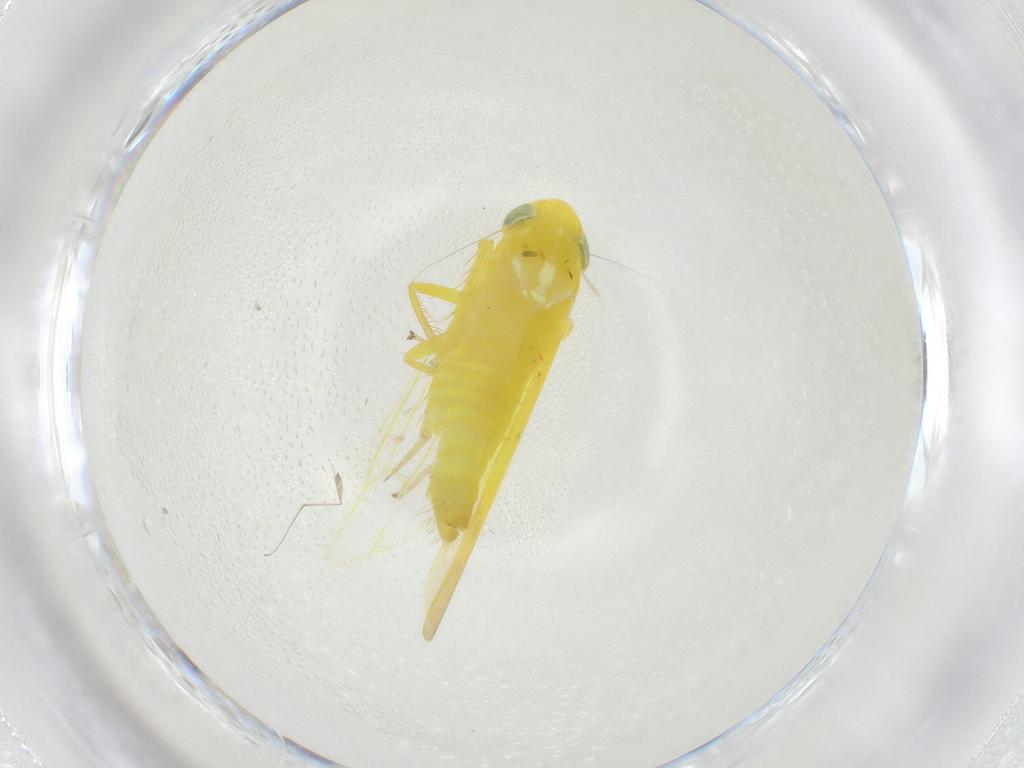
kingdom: Animalia
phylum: Arthropoda
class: Insecta
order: Hemiptera
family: Cicadellidae
